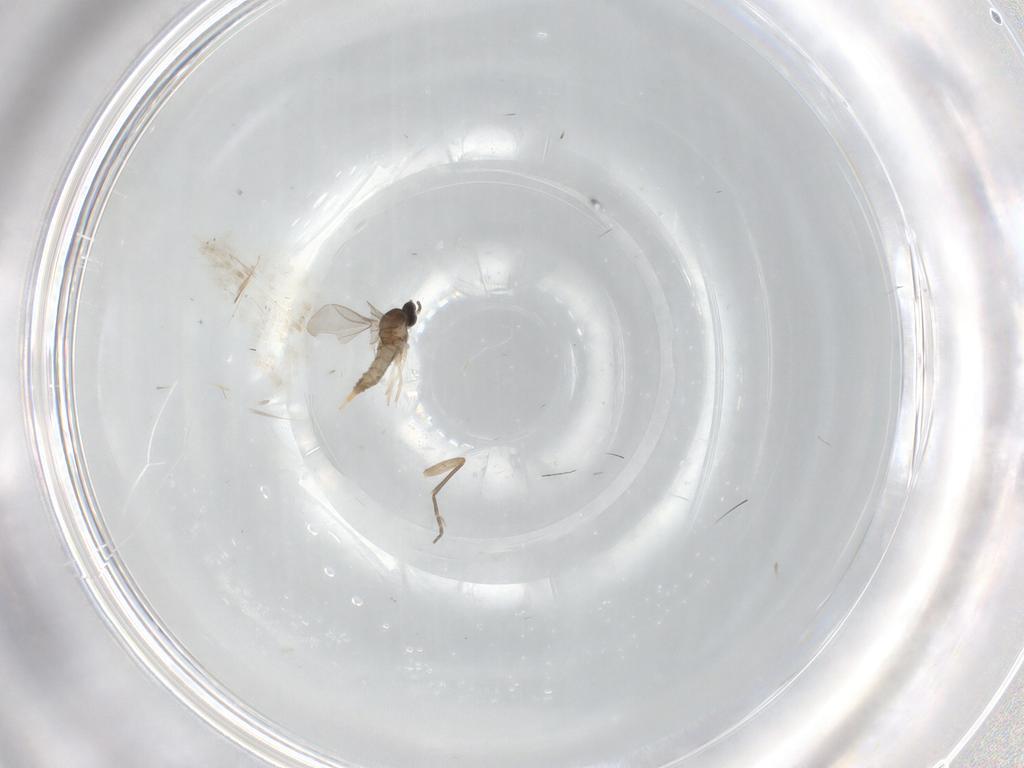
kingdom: Animalia
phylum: Arthropoda
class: Insecta
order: Diptera
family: Cecidomyiidae
